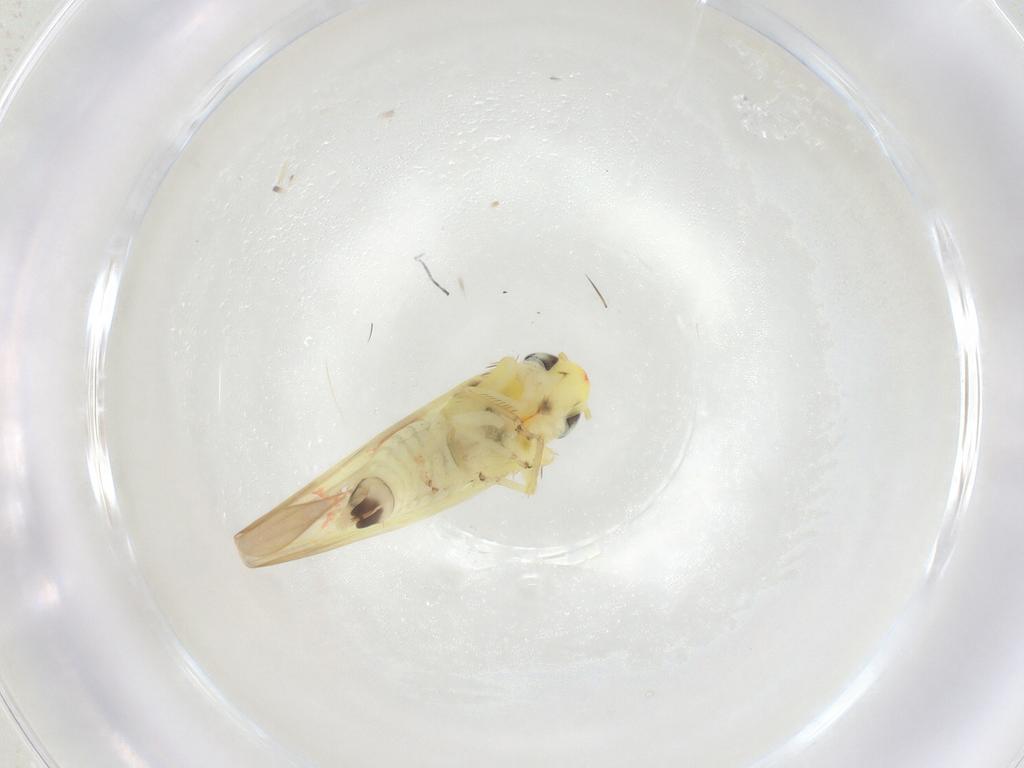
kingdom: Animalia
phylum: Arthropoda
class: Insecta
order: Hemiptera
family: Cicadellidae
